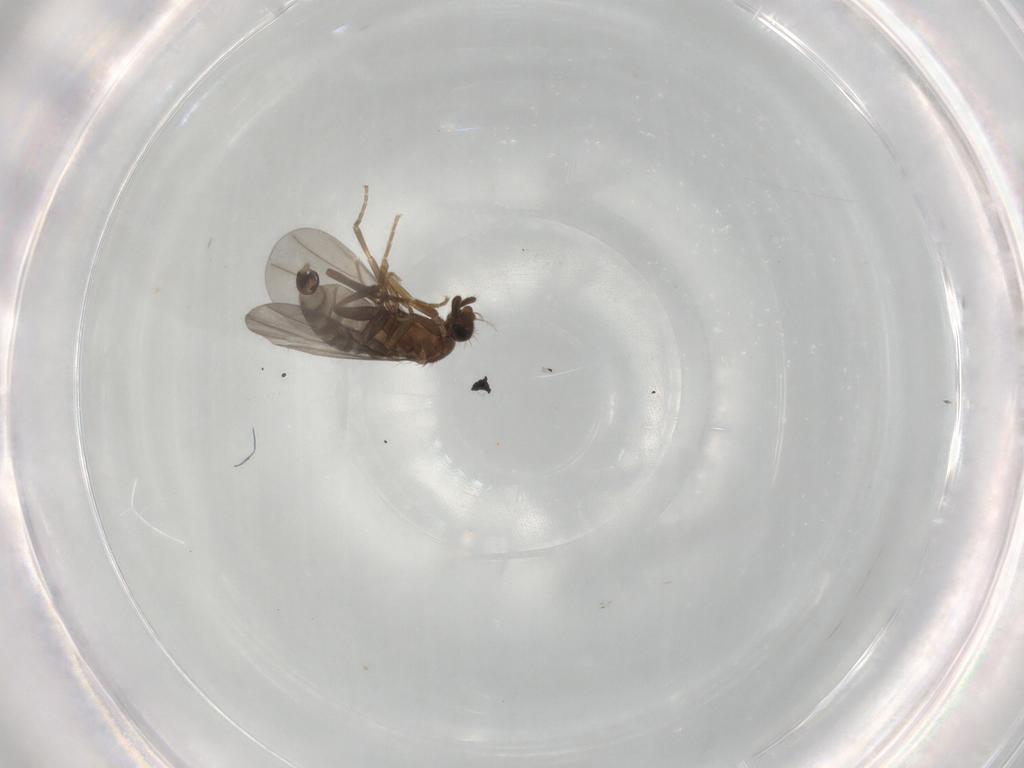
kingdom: Animalia
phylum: Arthropoda
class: Insecta
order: Diptera
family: Phoridae
